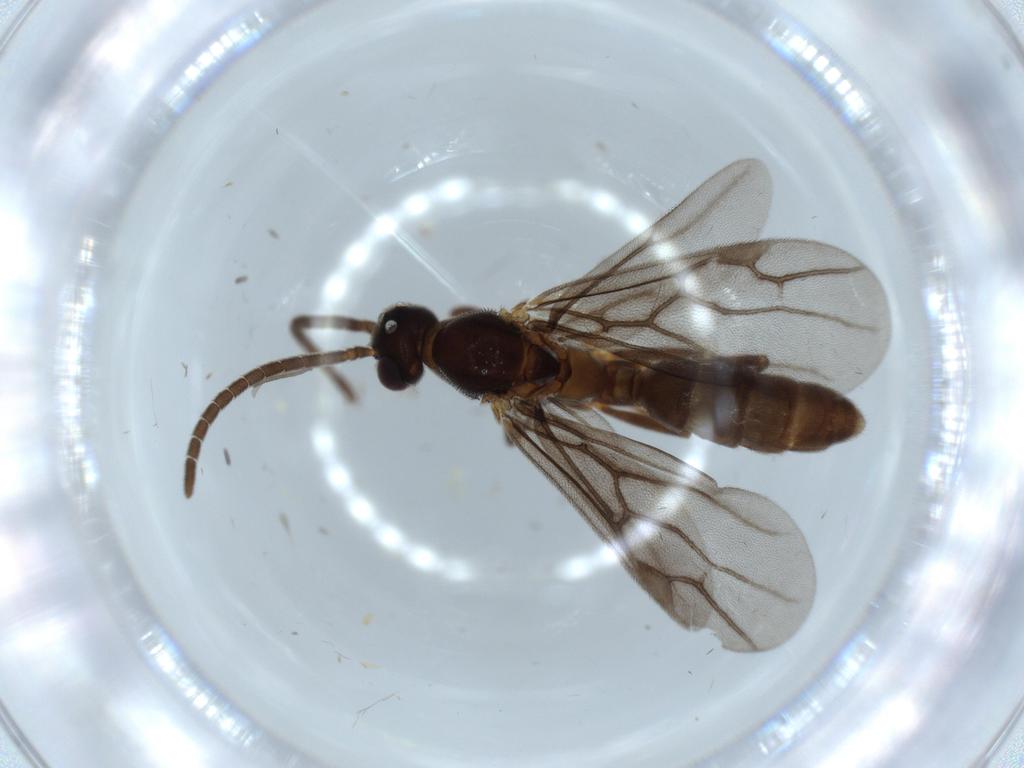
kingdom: Animalia
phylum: Arthropoda
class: Insecta
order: Hymenoptera
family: Formicidae
